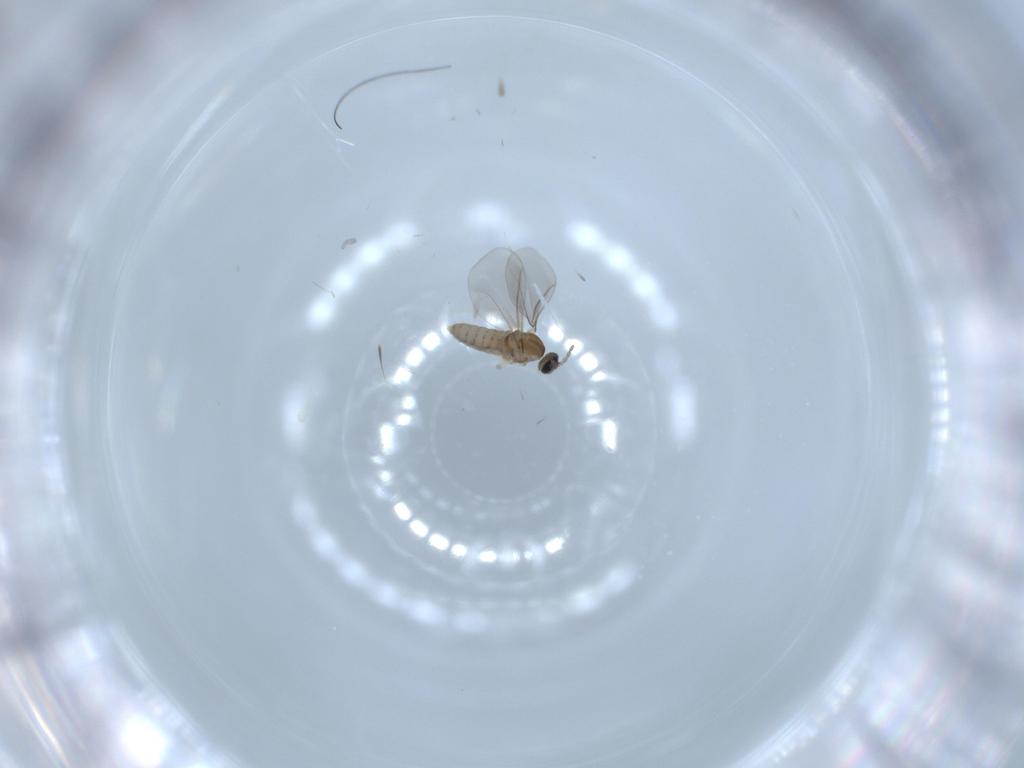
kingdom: Animalia
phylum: Arthropoda
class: Insecta
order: Diptera
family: Cecidomyiidae
